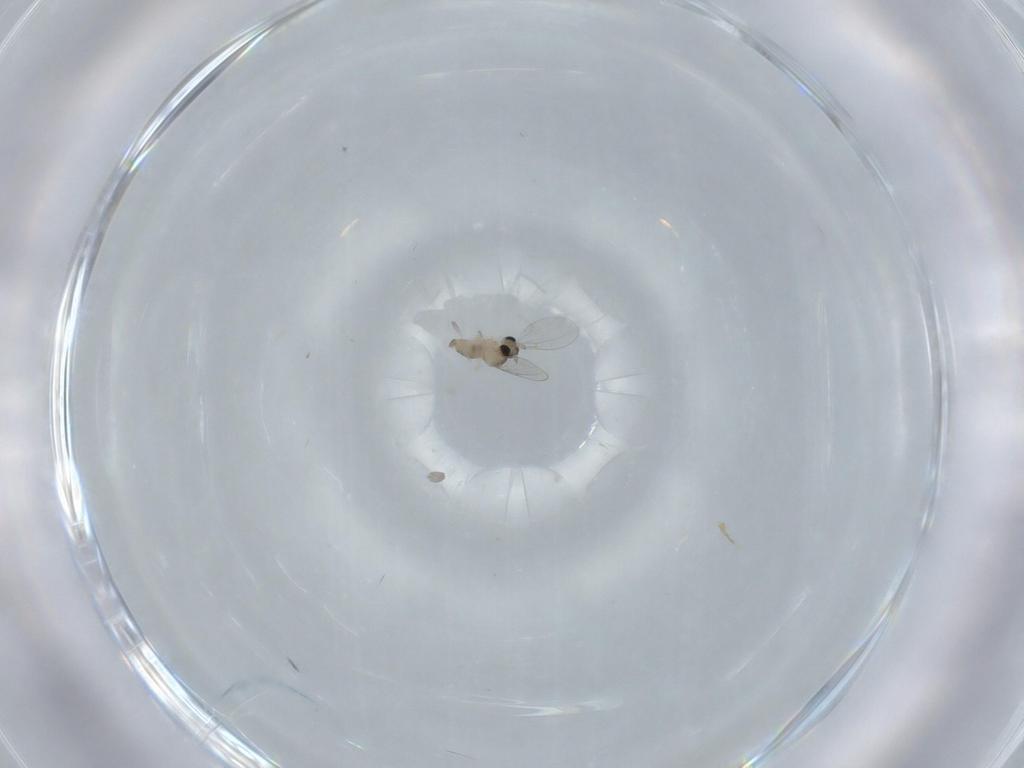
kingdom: Animalia
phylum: Arthropoda
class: Insecta
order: Diptera
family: Cecidomyiidae
